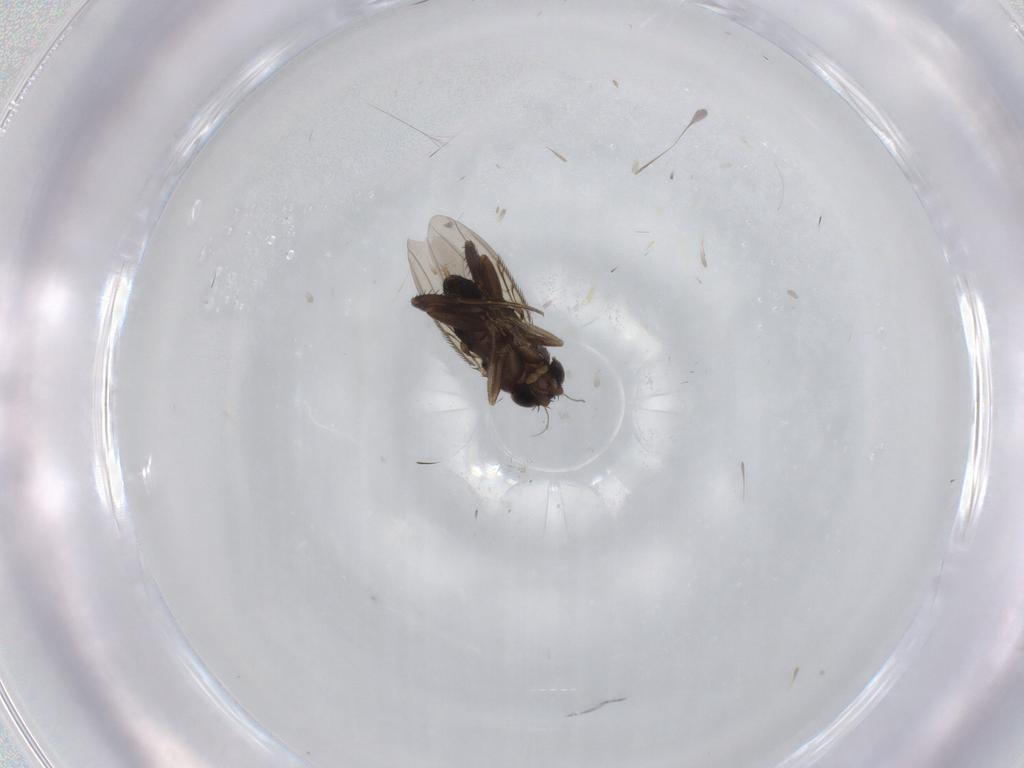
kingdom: Animalia
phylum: Arthropoda
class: Insecta
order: Diptera
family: Phoridae
